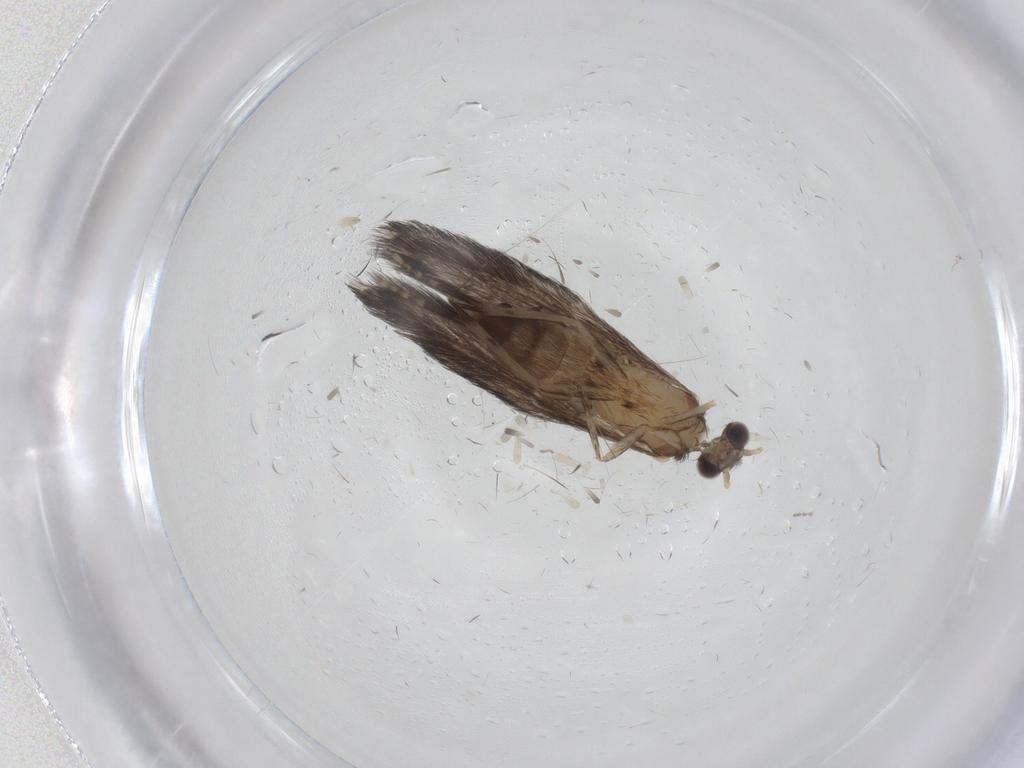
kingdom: Animalia
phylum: Arthropoda
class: Insecta
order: Trichoptera
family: Hydroptilidae
